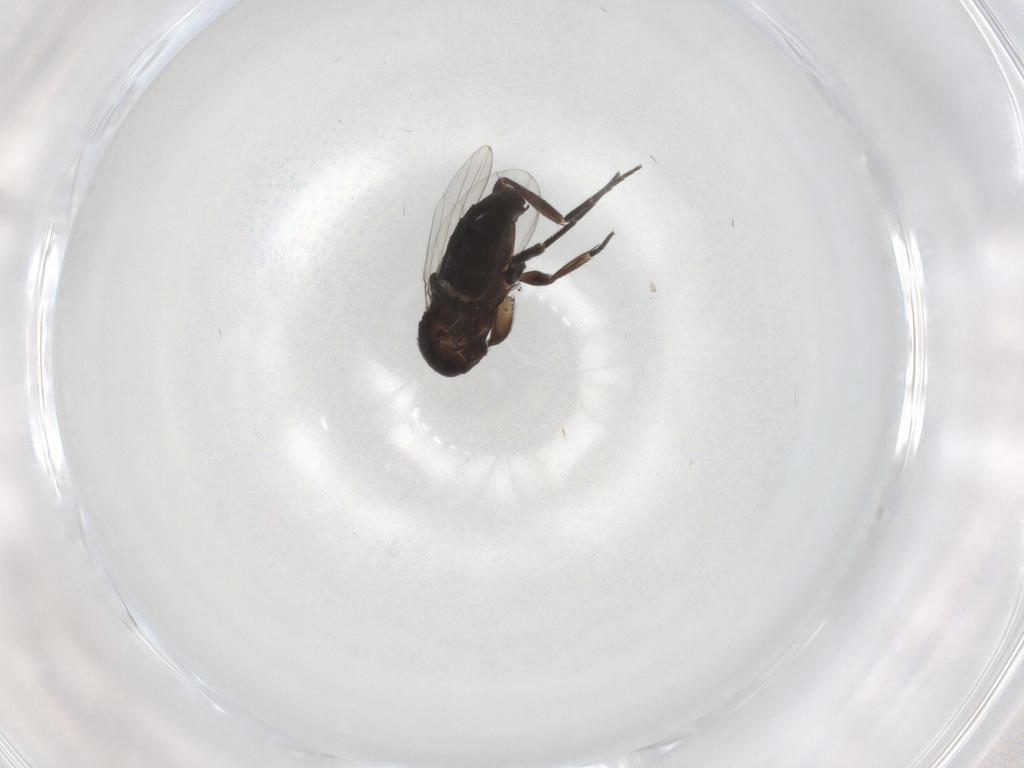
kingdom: Animalia
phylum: Arthropoda
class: Insecta
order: Diptera
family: Phoridae
